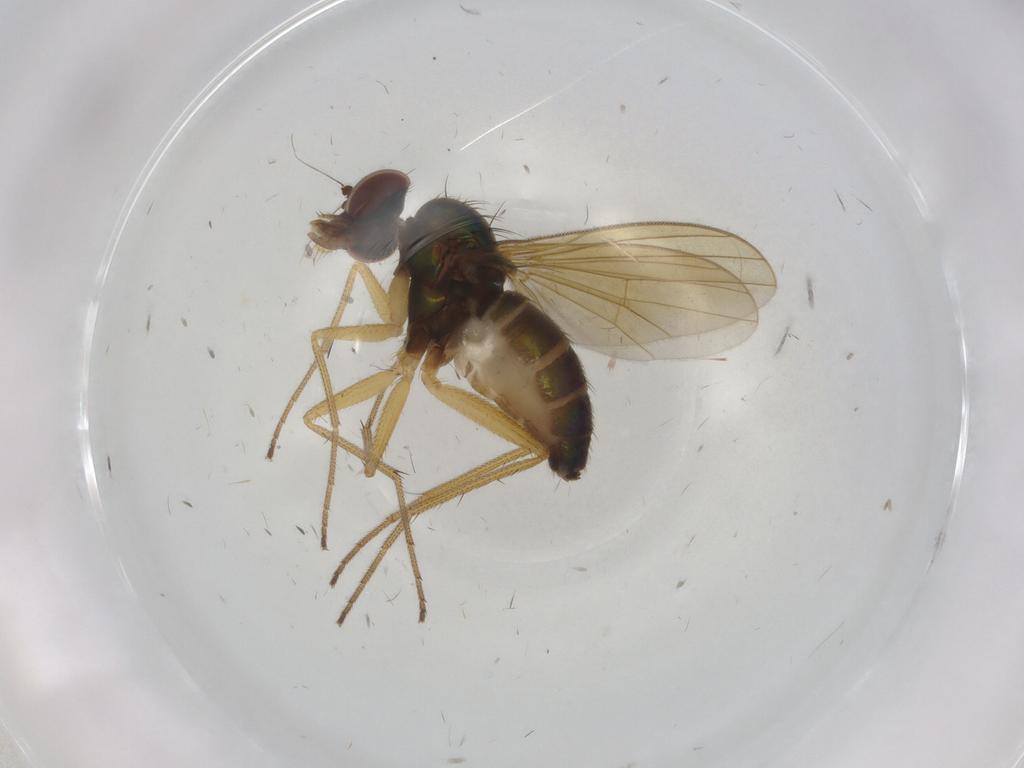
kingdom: Animalia
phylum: Arthropoda
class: Insecta
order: Diptera
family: Dolichopodidae
